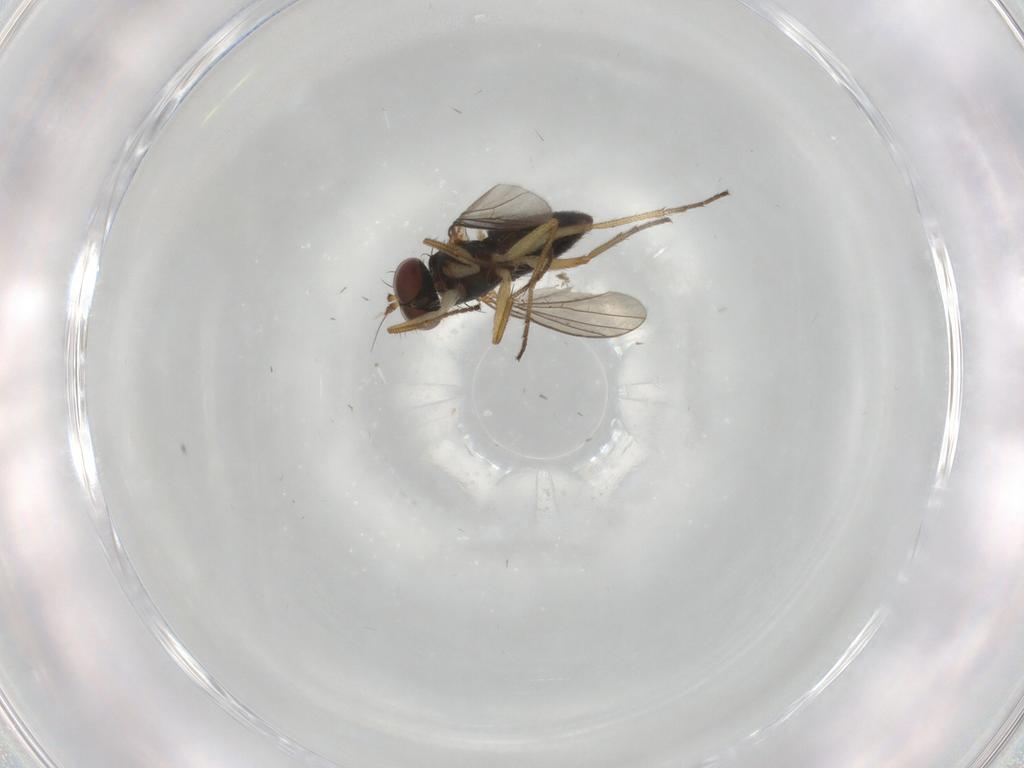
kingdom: Animalia
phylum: Arthropoda
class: Insecta
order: Diptera
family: Dolichopodidae
